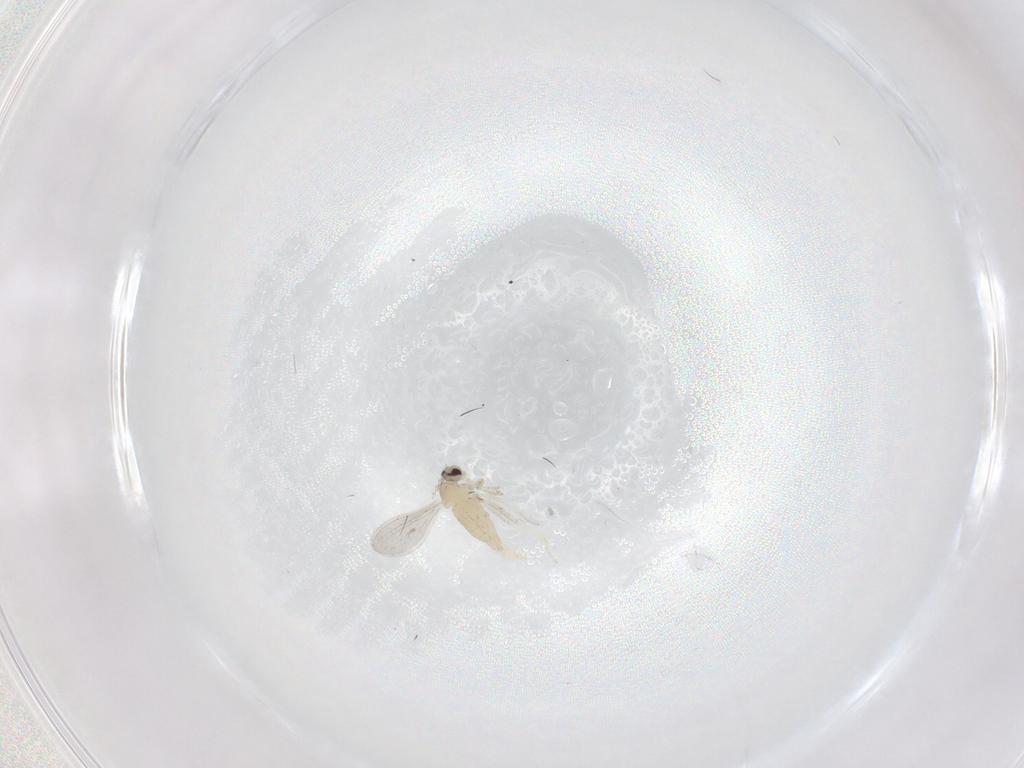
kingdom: Animalia
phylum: Arthropoda
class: Insecta
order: Diptera
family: Cecidomyiidae
